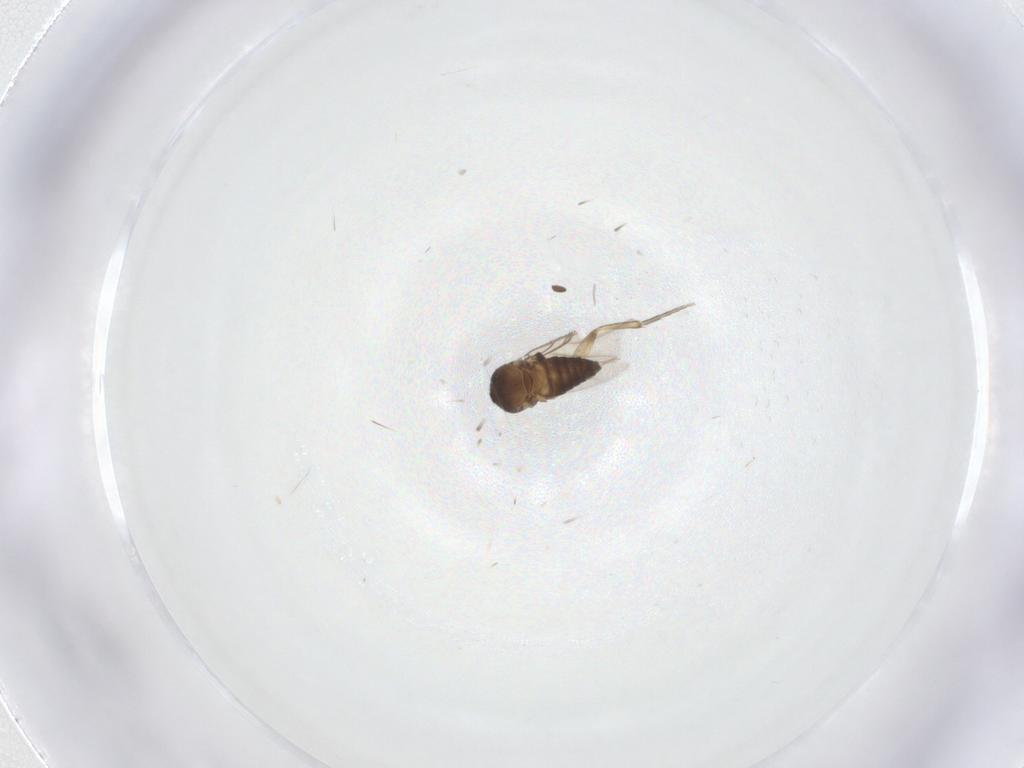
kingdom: Animalia
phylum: Arthropoda
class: Insecta
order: Diptera
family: Phoridae
